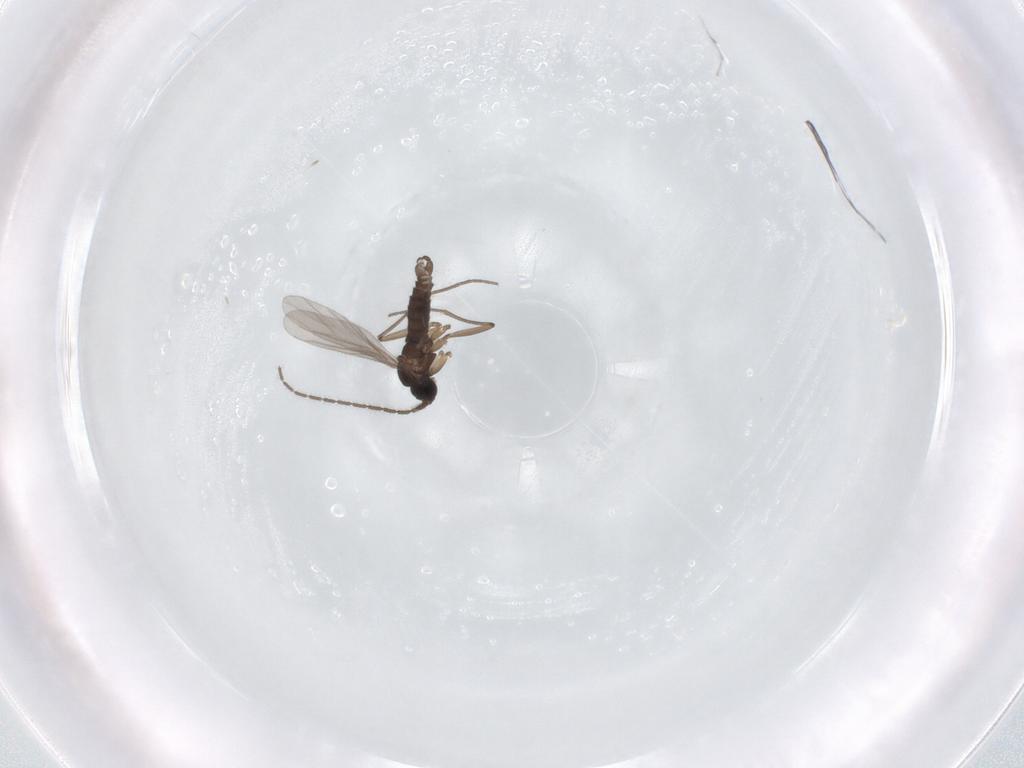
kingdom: Animalia
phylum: Arthropoda
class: Insecta
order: Diptera
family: Sciaridae
